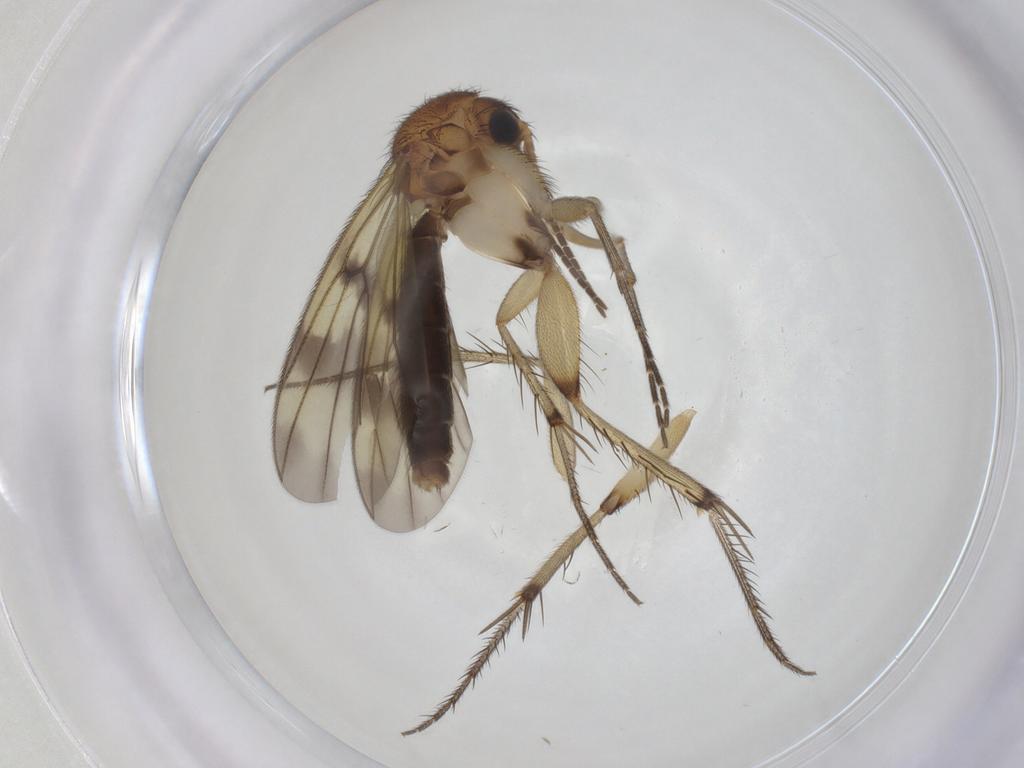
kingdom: Animalia
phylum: Arthropoda
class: Insecta
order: Diptera
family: Mycetophilidae
